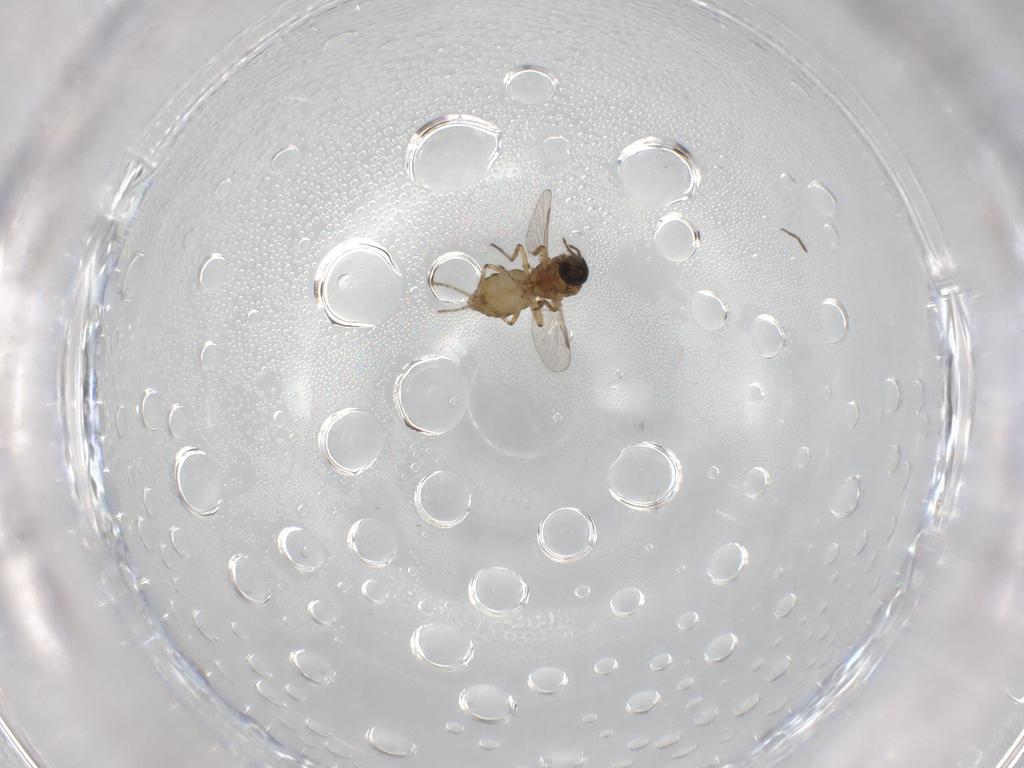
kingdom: Animalia
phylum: Arthropoda
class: Insecta
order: Diptera
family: Ceratopogonidae
